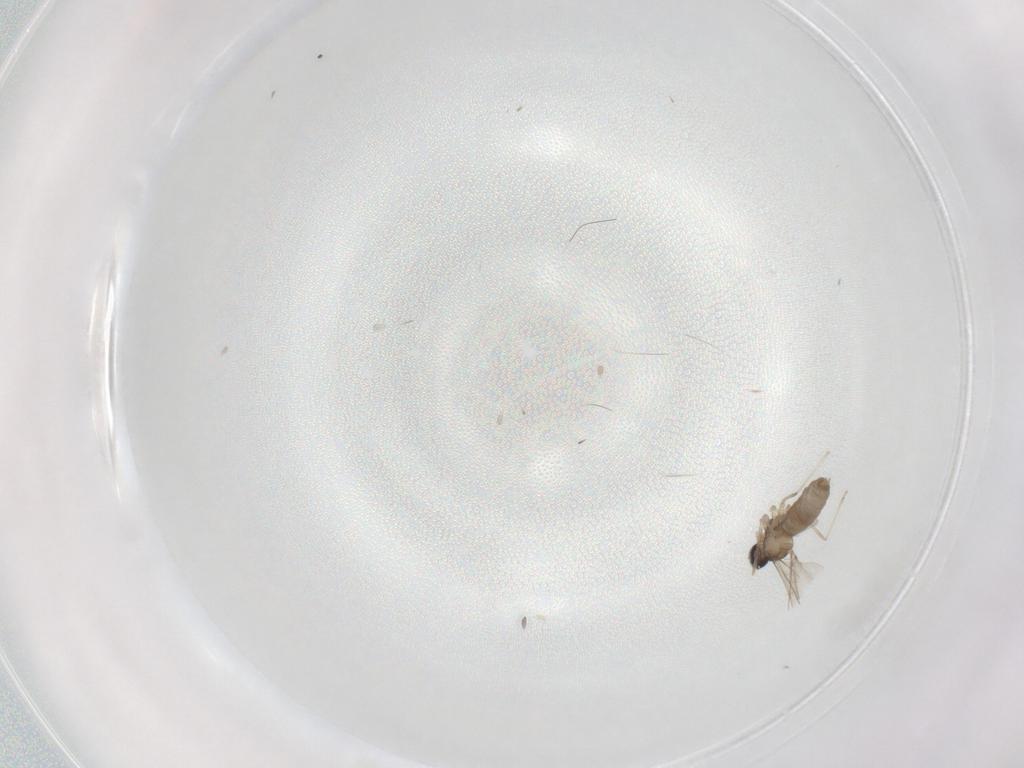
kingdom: Animalia
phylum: Arthropoda
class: Insecta
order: Diptera
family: Cecidomyiidae
